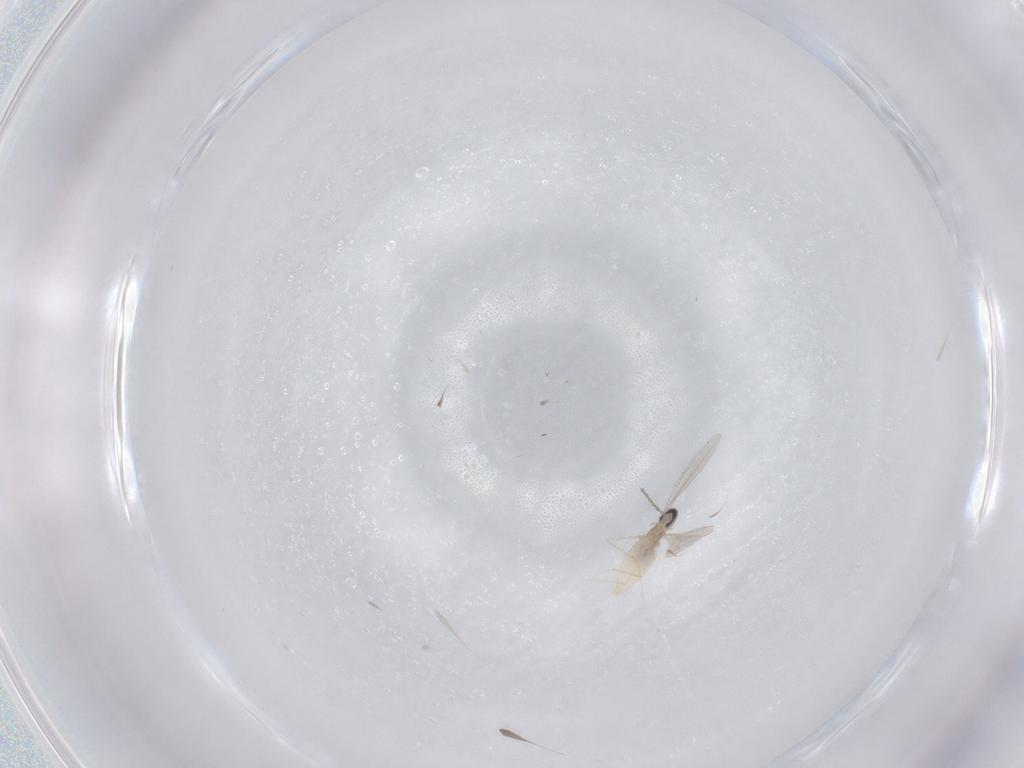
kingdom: Animalia
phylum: Arthropoda
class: Insecta
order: Diptera
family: Cecidomyiidae
